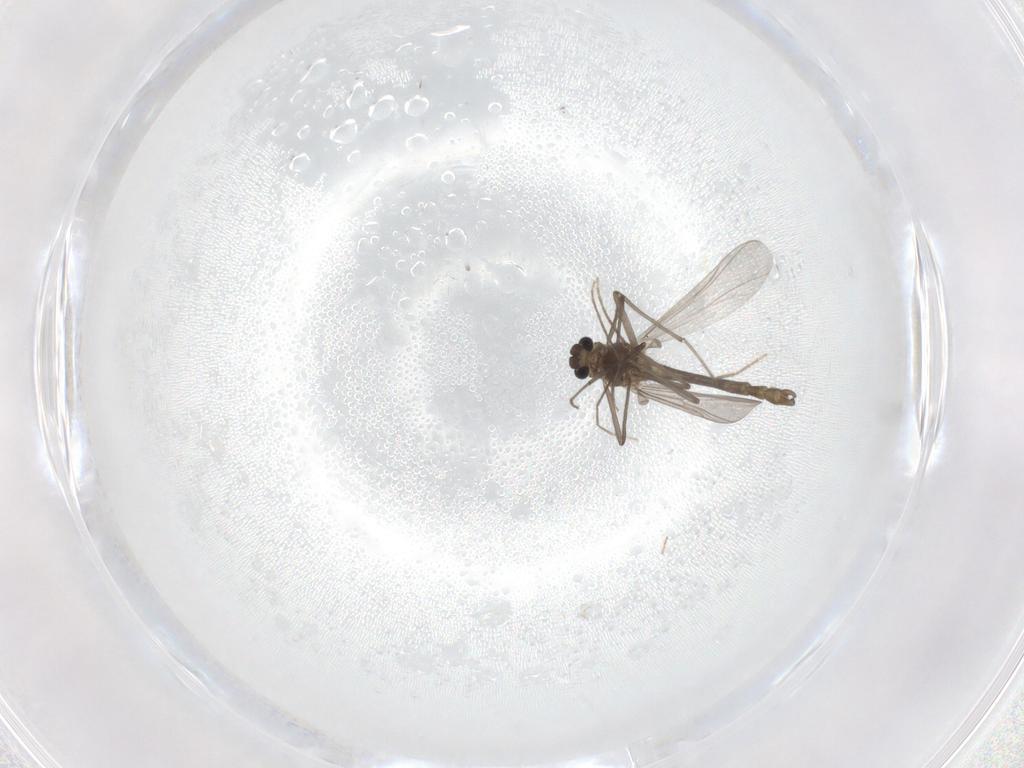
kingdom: Animalia
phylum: Arthropoda
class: Insecta
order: Diptera
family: Chironomidae
